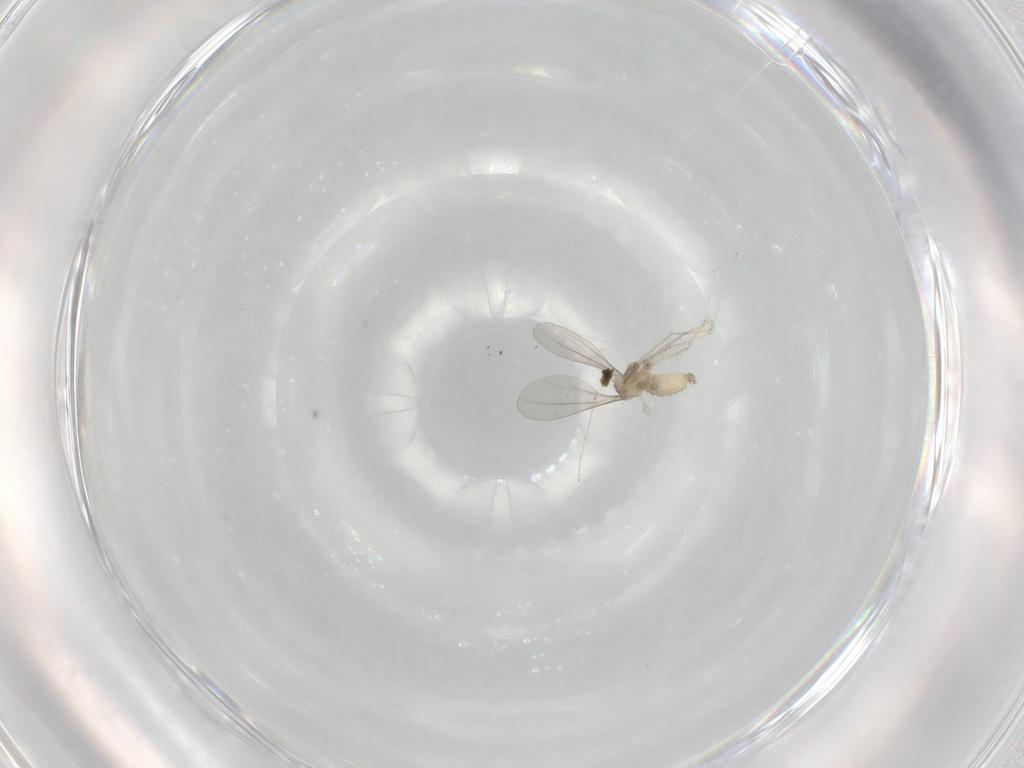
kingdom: Animalia
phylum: Arthropoda
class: Insecta
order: Diptera
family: Cecidomyiidae
